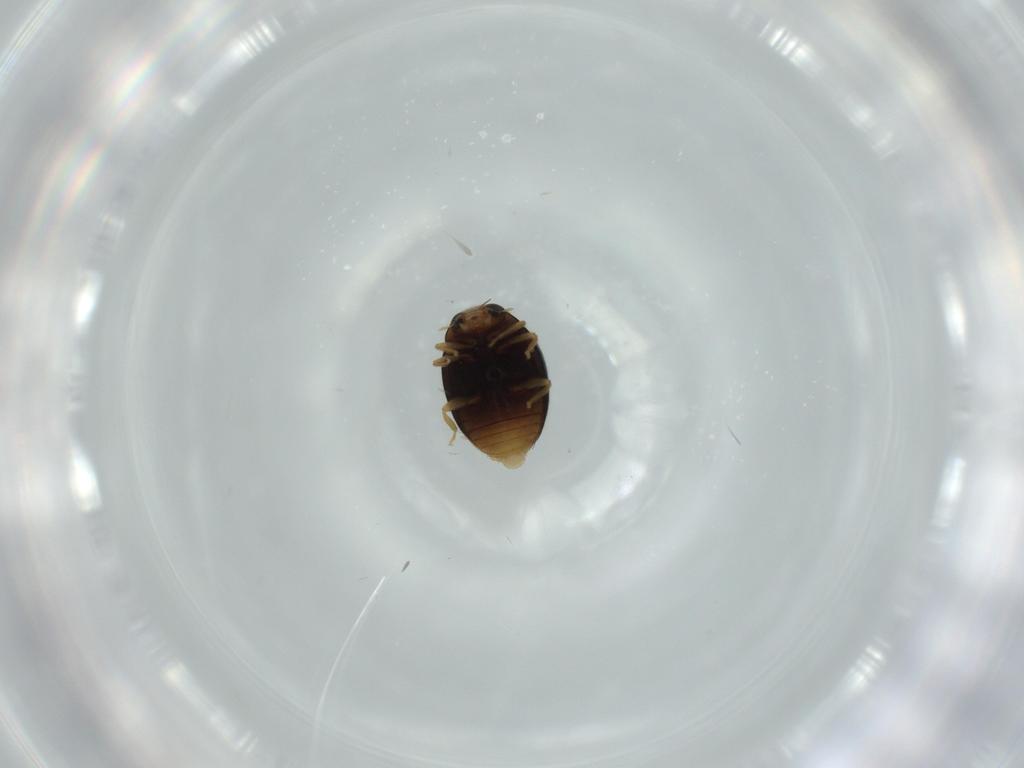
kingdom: Animalia
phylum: Arthropoda
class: Insecta
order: Coleoptera
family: Coccinellidae
